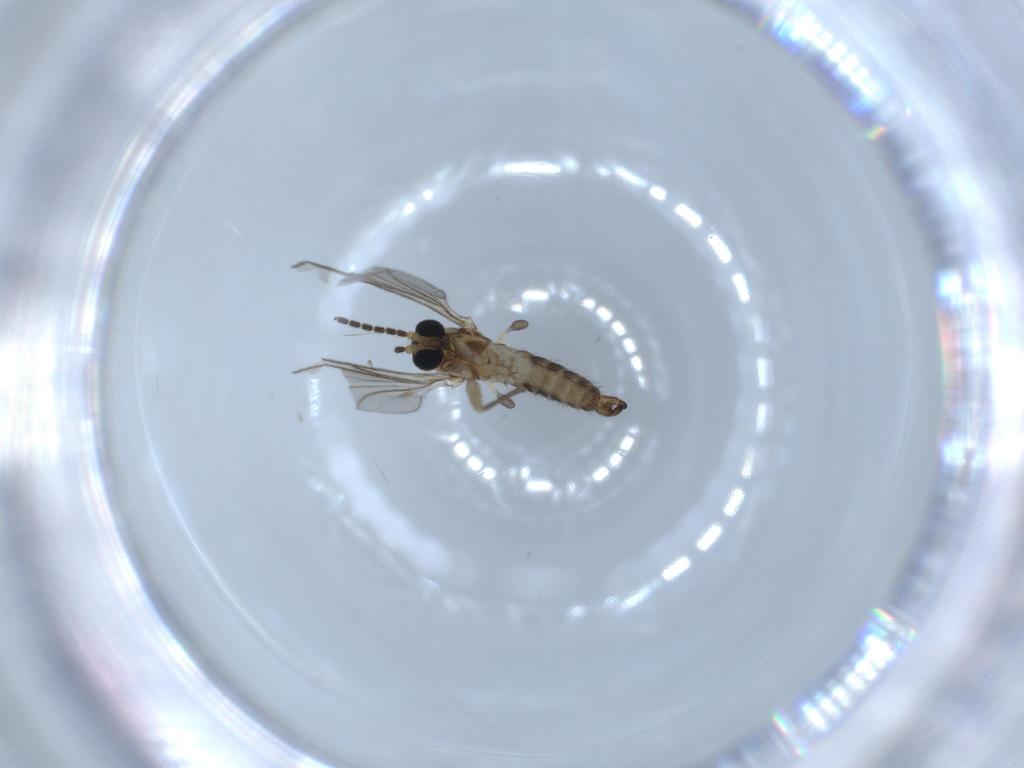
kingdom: Animalia
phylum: Arthropoda
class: Insecta
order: Diptera
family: Sciaridae
